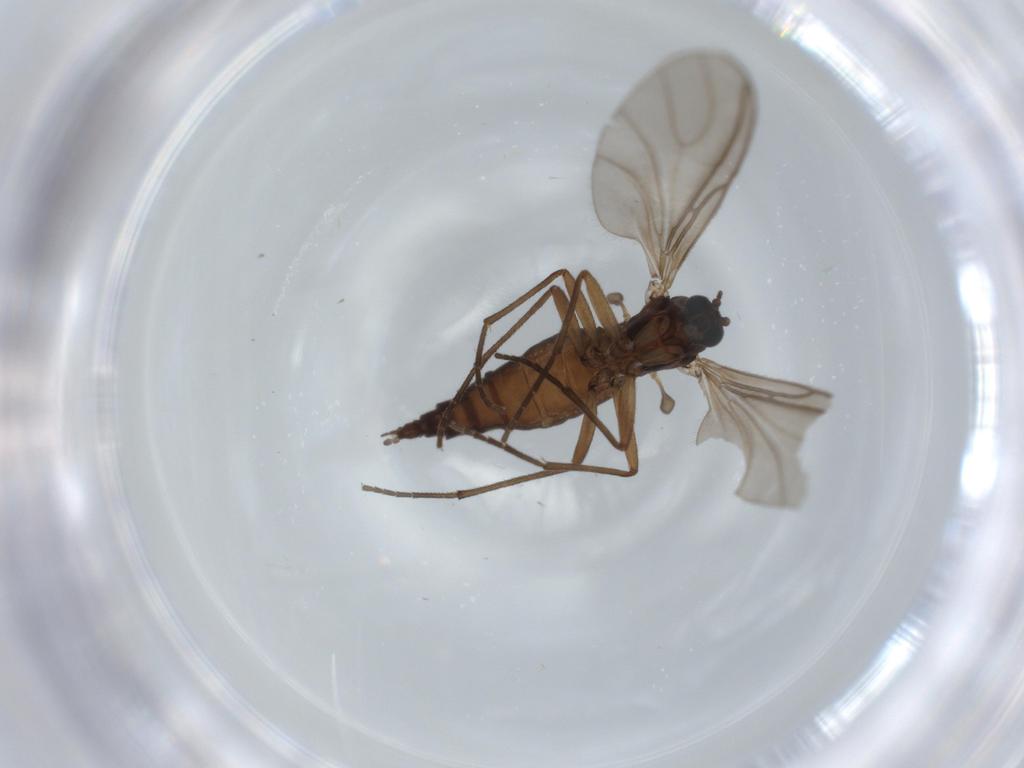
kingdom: Animalia
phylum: Arthropoda
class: Insecta
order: Diptera
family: Sciaridae
